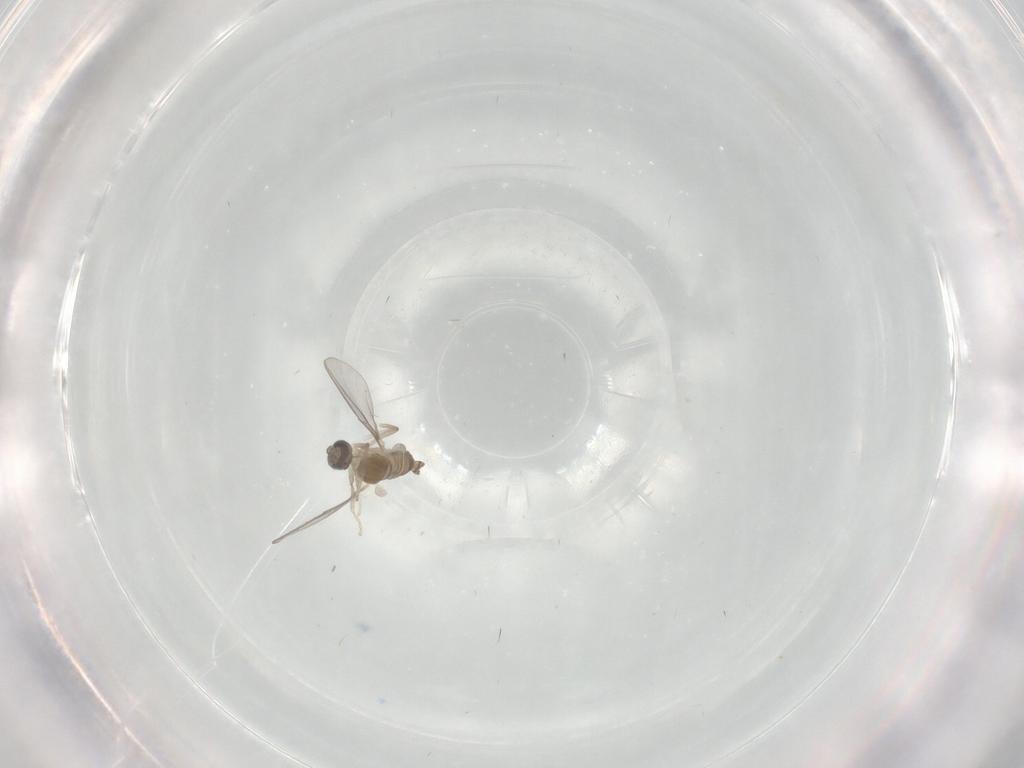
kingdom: Animalia
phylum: Arthropoda
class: Insecta
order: Diptera
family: Cecidomyiidae
